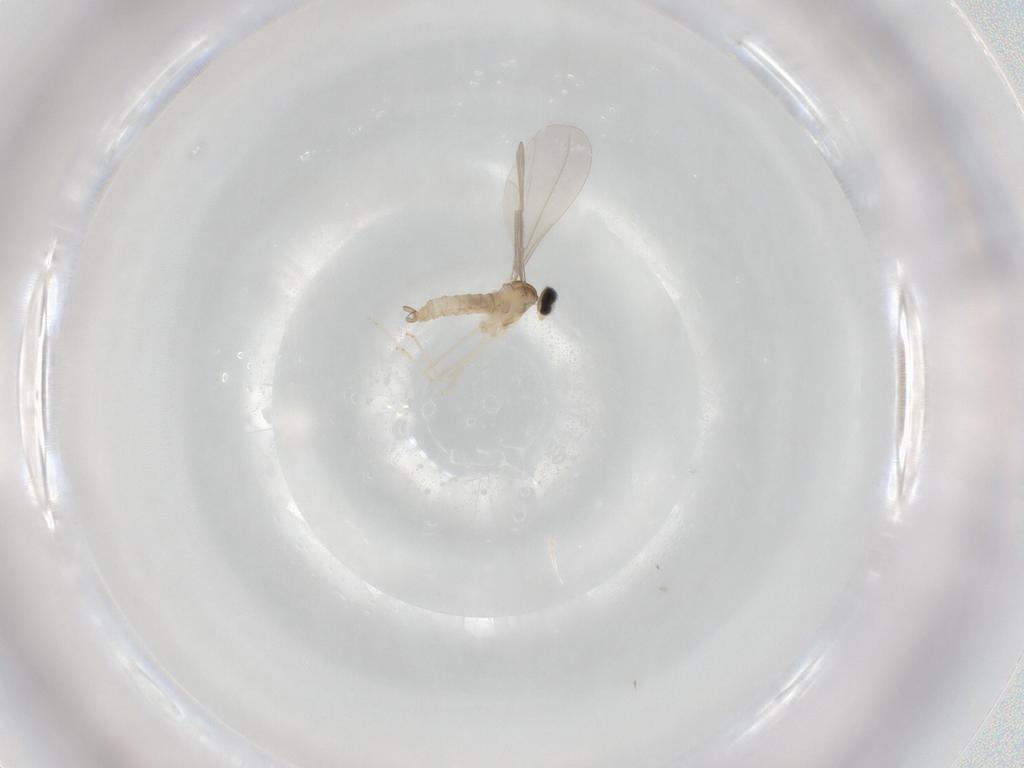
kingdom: Animalia
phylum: Arthropoda
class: Insecta
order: Diptera
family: Cecidomyiidae
